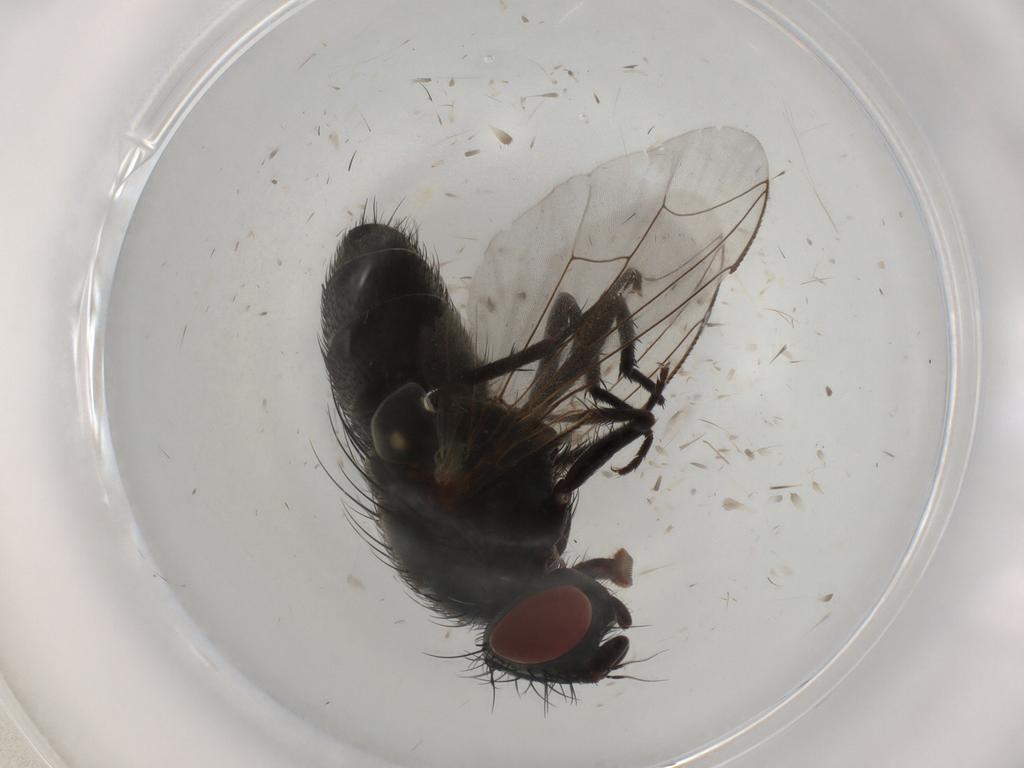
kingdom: Animalia
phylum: Arthropoda
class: Insecta
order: Diptera
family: Sarcophagidae
